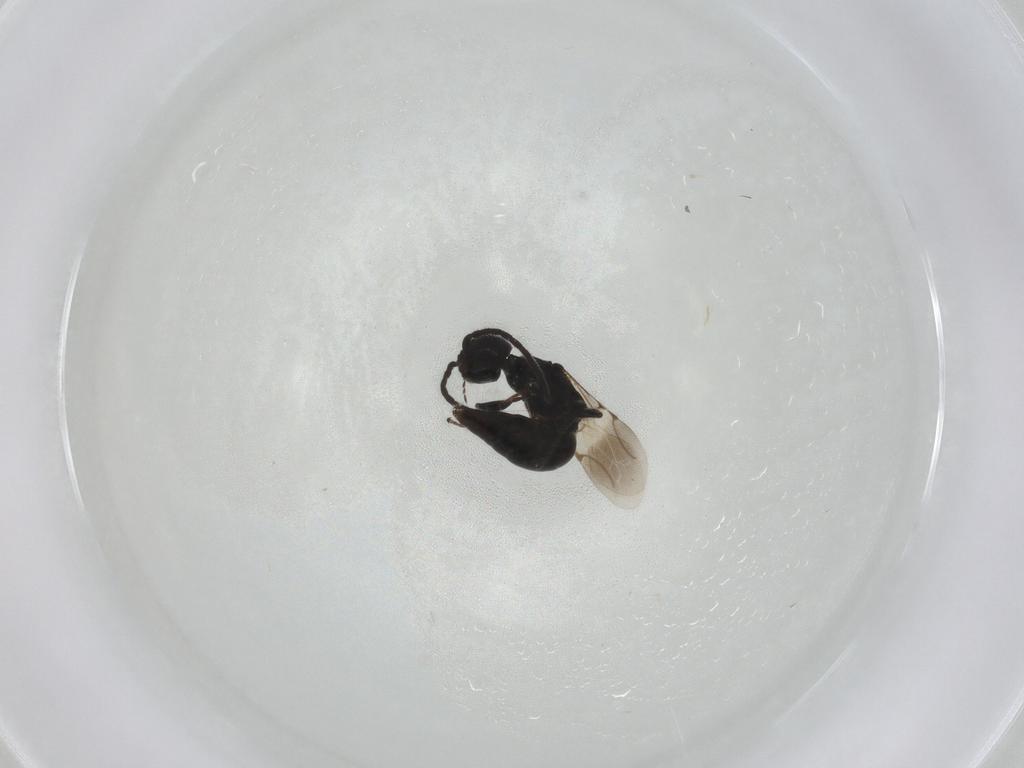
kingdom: Animalia
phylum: Arthropoda
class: Insecta
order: Hymenoptera
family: Bethylidae
